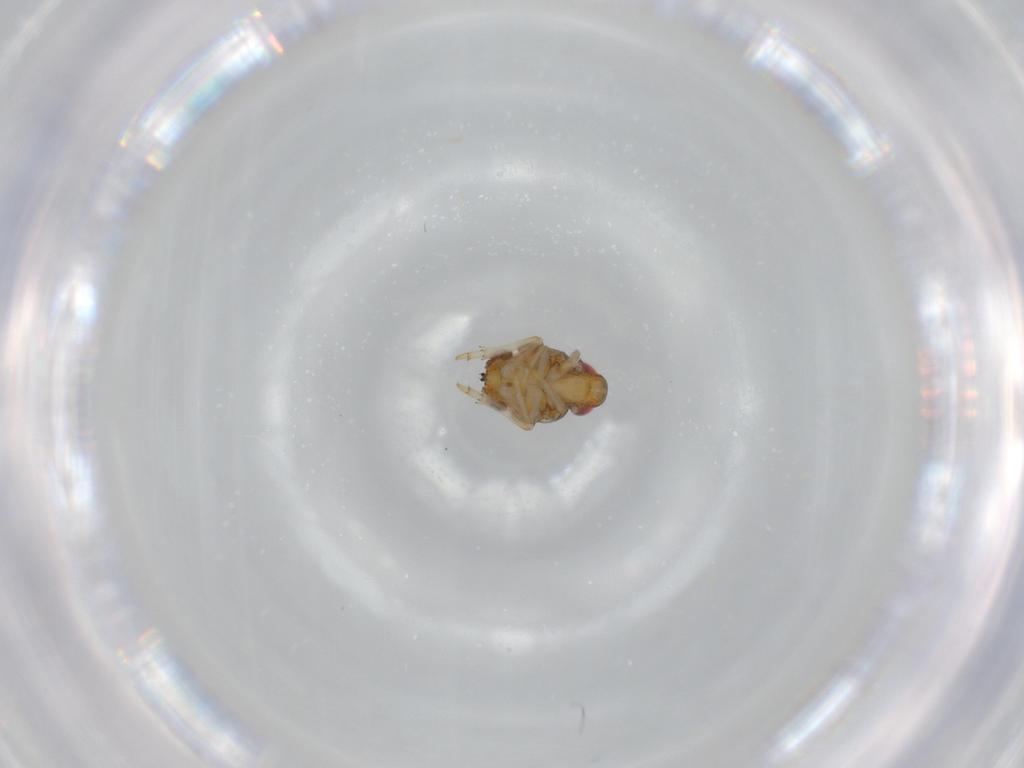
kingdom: Animalia
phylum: Arthropoda
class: Insecta
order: Hemiptera
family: Issidae
